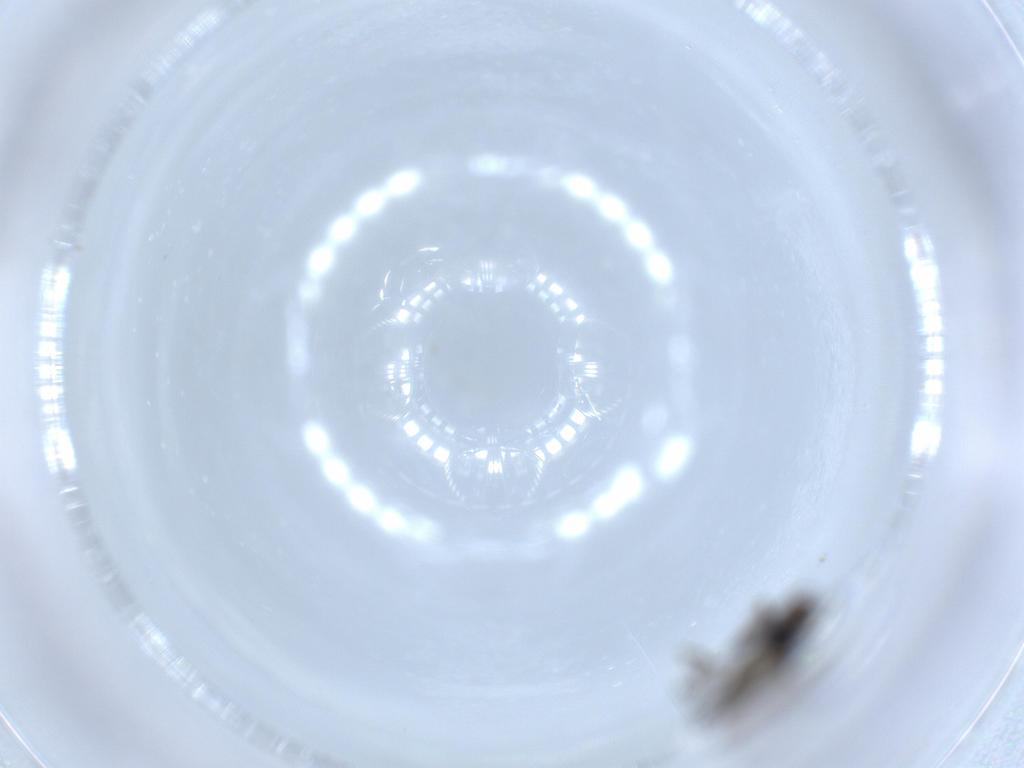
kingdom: Animalia
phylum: Arthropoda
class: Insecta
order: Diptera
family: Sciaridae
